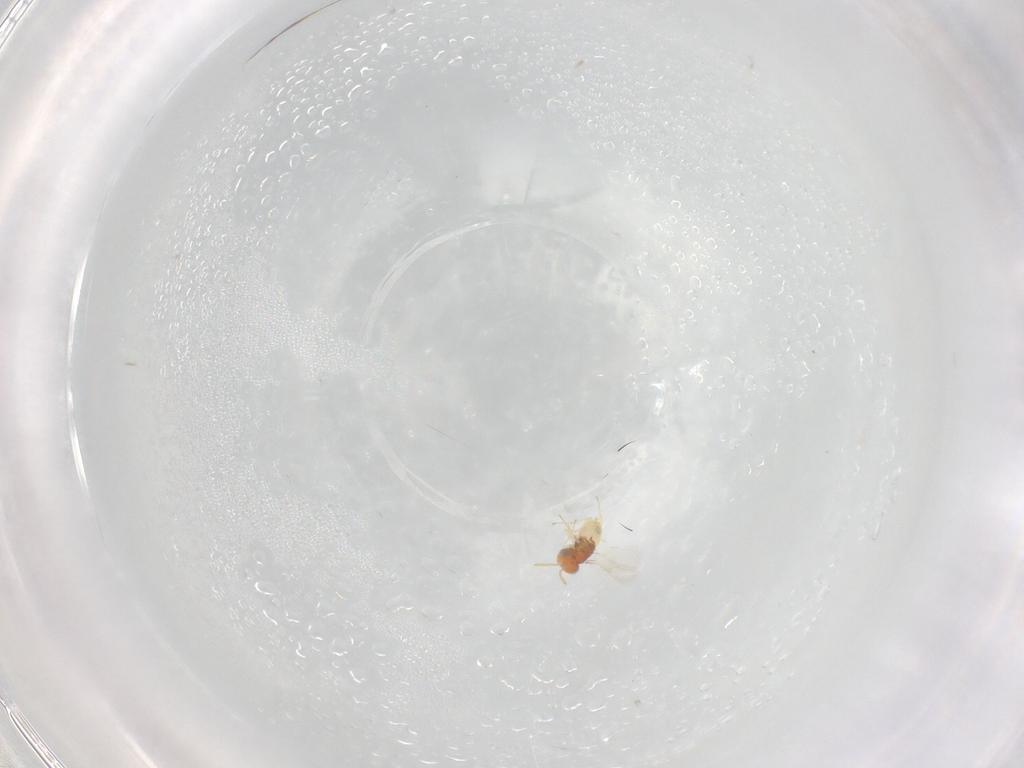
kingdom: Animalia
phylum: Arthropoda
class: Insecta
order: Hymenoptera
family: Aphelinidae
